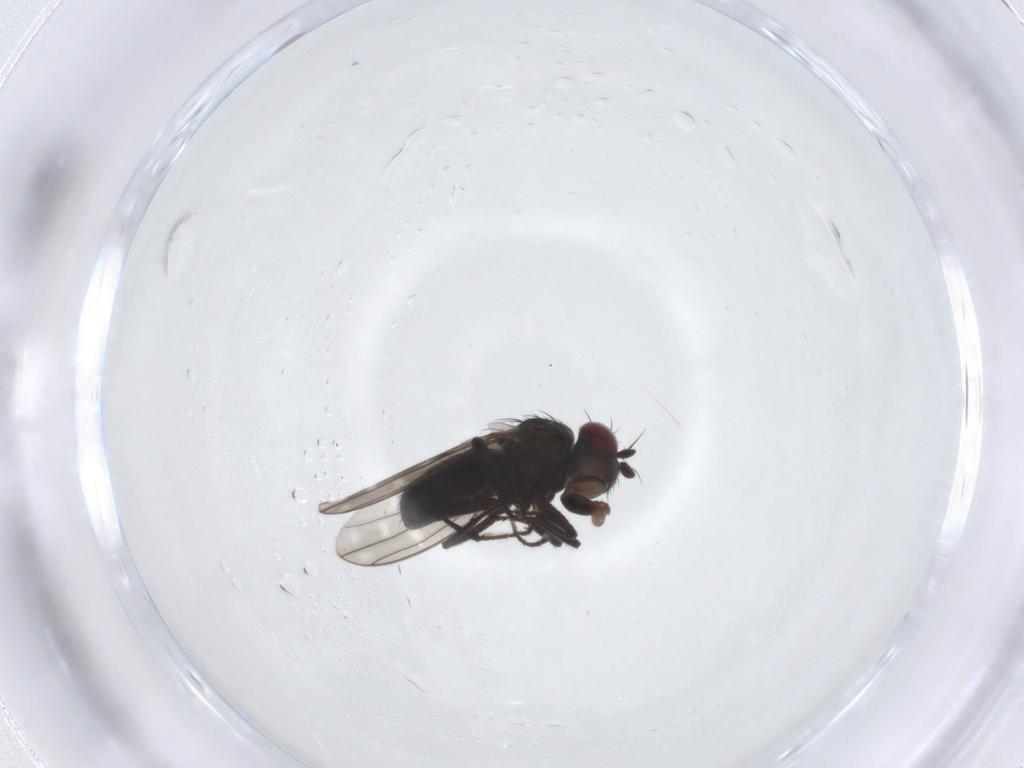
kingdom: Animalia
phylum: Arthropoda
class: Insecta
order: Diptera
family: Ephydridae
